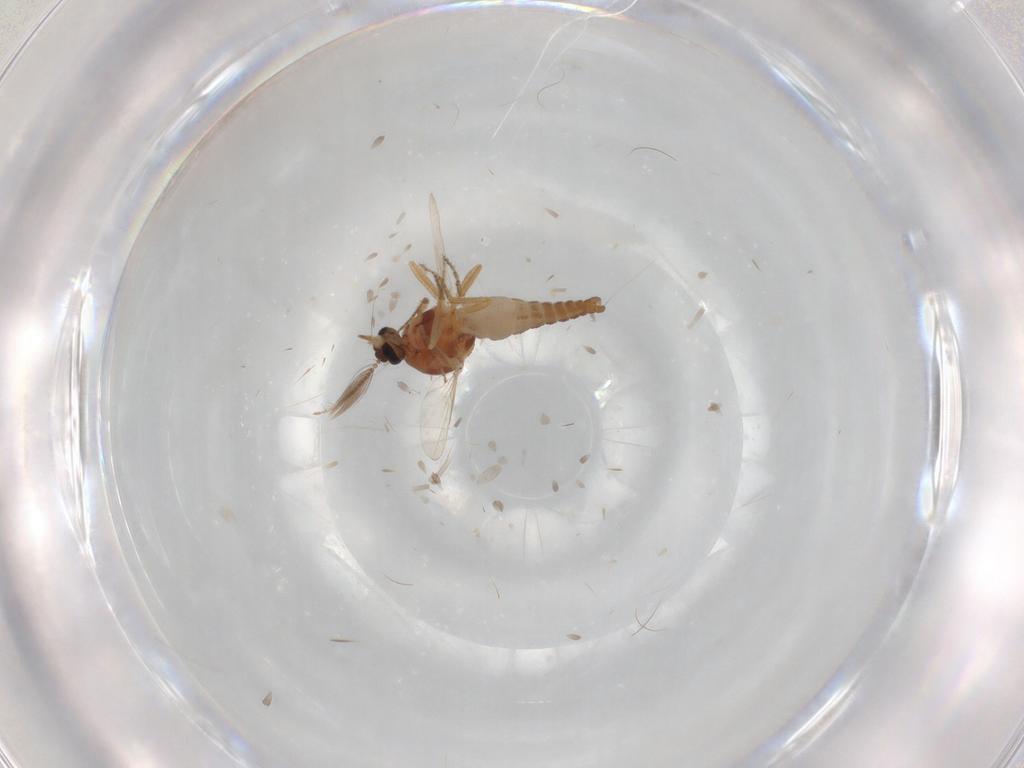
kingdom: Animalia
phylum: Arthropoda
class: Insecta
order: Diptera
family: Ceratopogonidae
